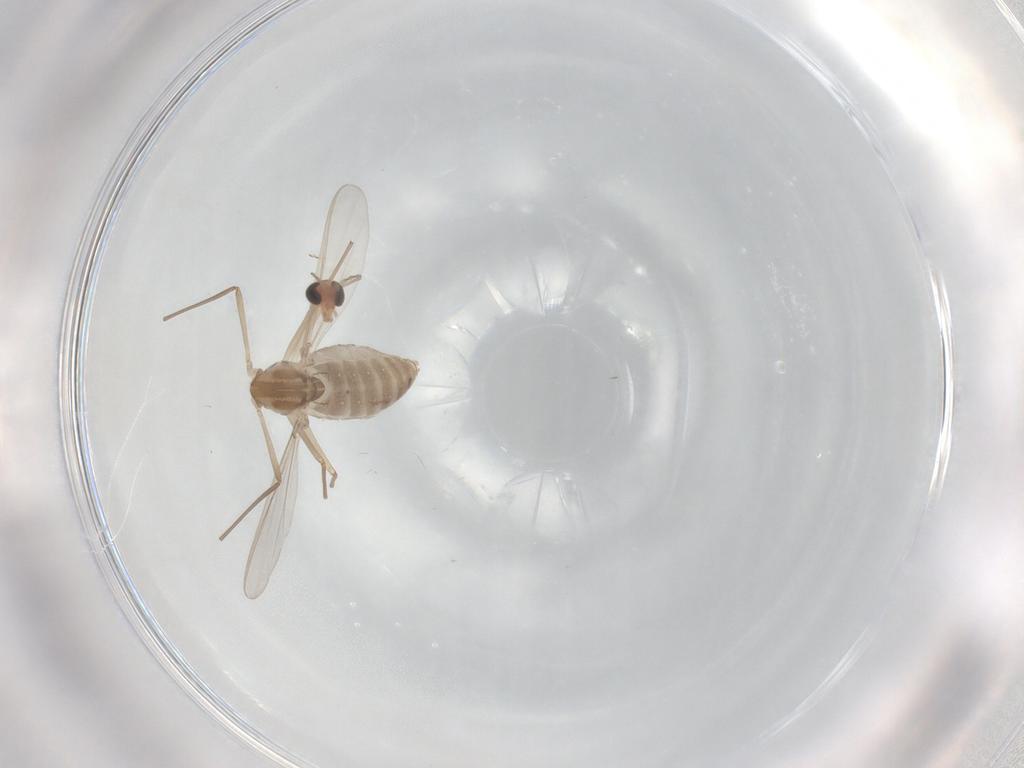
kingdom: Animalia
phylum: Arthropoda
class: Insecta
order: Diptera
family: Chironomidae
